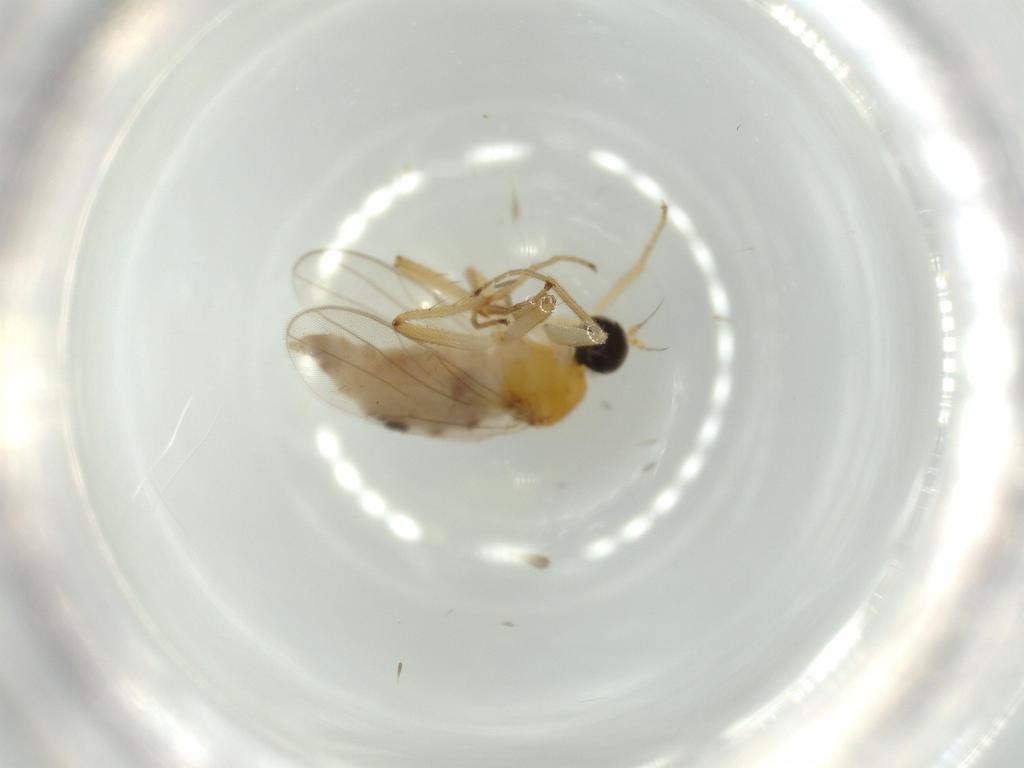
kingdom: Animalia
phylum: Arthropoda
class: Insecta
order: Diptera
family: Hybotidae
